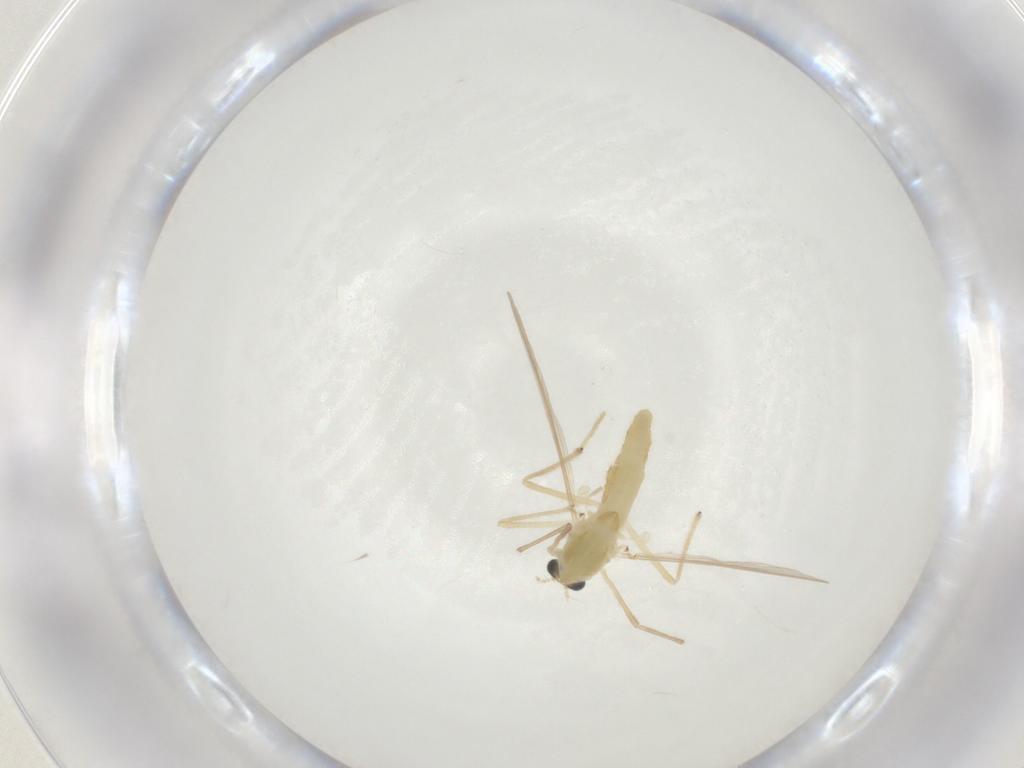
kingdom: Animalia
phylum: Arthropoda
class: Insecta
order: Diptera
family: Chironomidae
